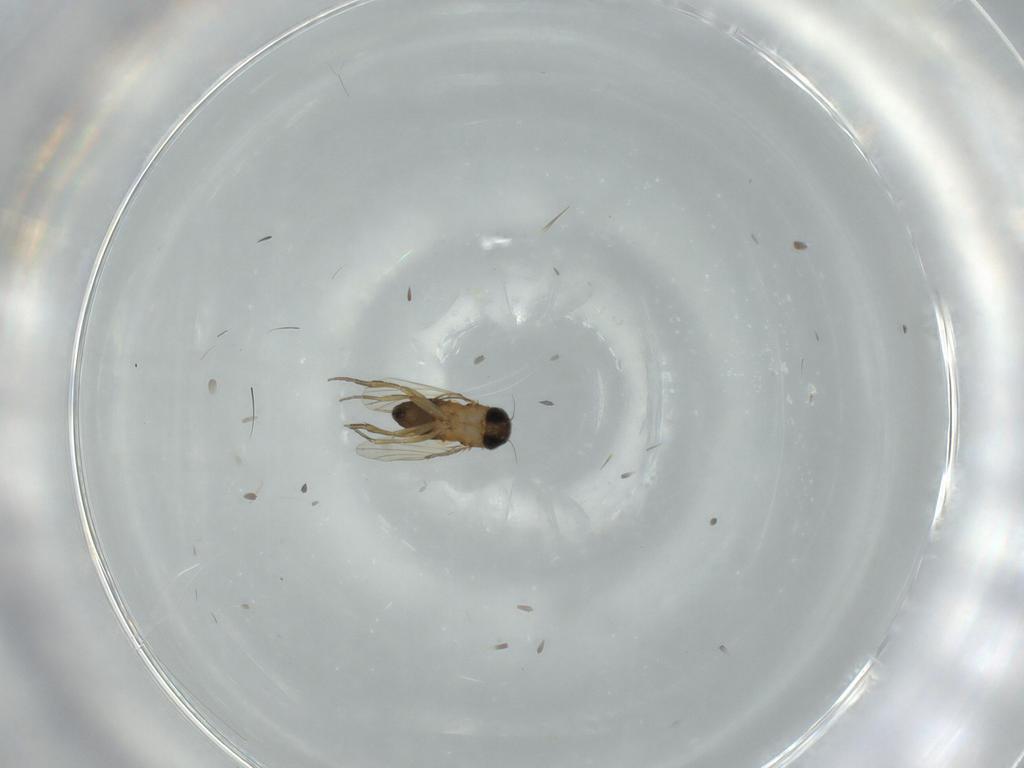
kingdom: Animalia
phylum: Arthropoda
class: Insecta
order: Diptera
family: Phoridae
